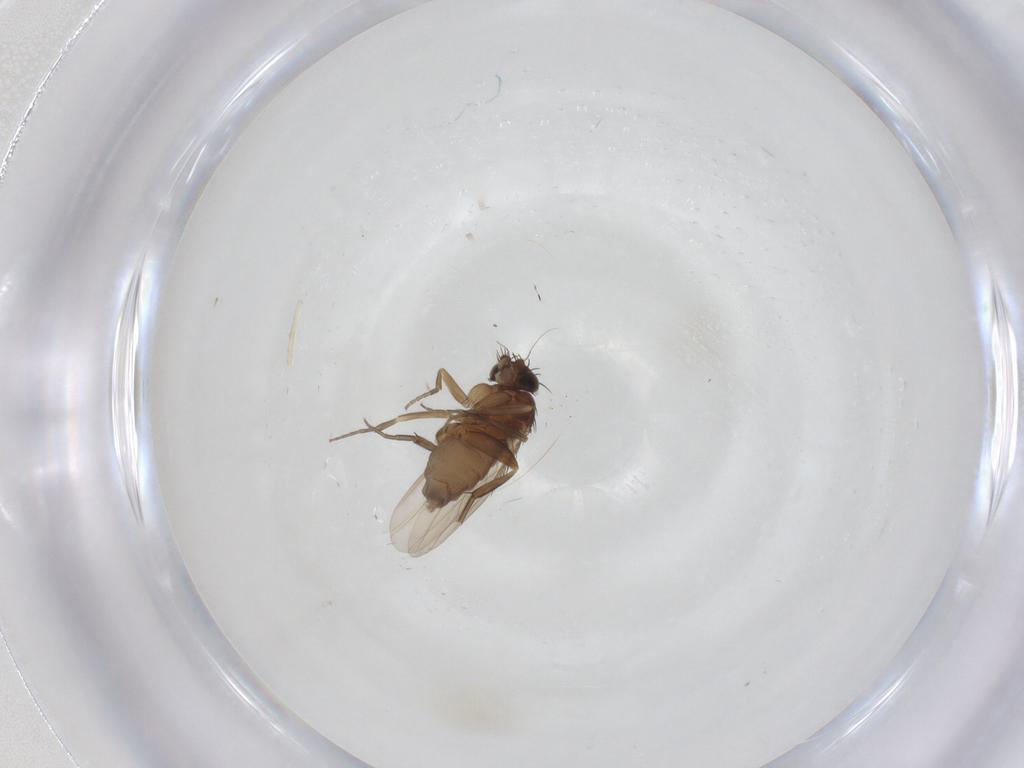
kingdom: Animalia
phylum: Arthropoda
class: Insecta
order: Diptera
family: Phoridae
